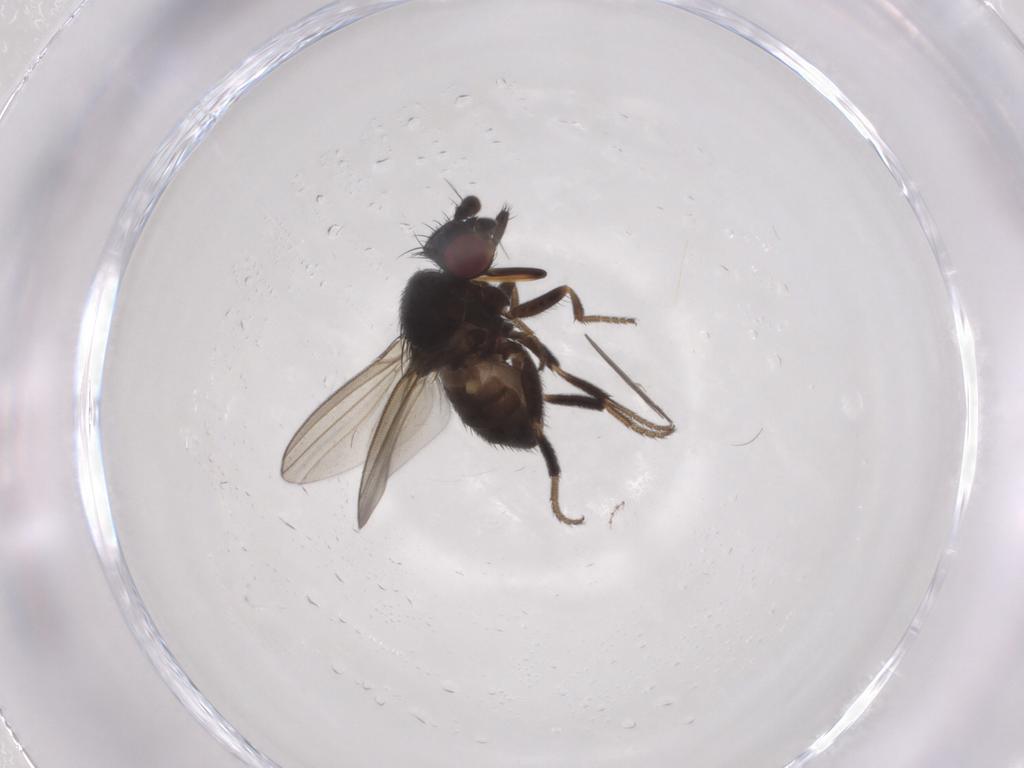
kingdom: Animalia
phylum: Arthropoda
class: Insecta
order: Diptera
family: Milichiidae
